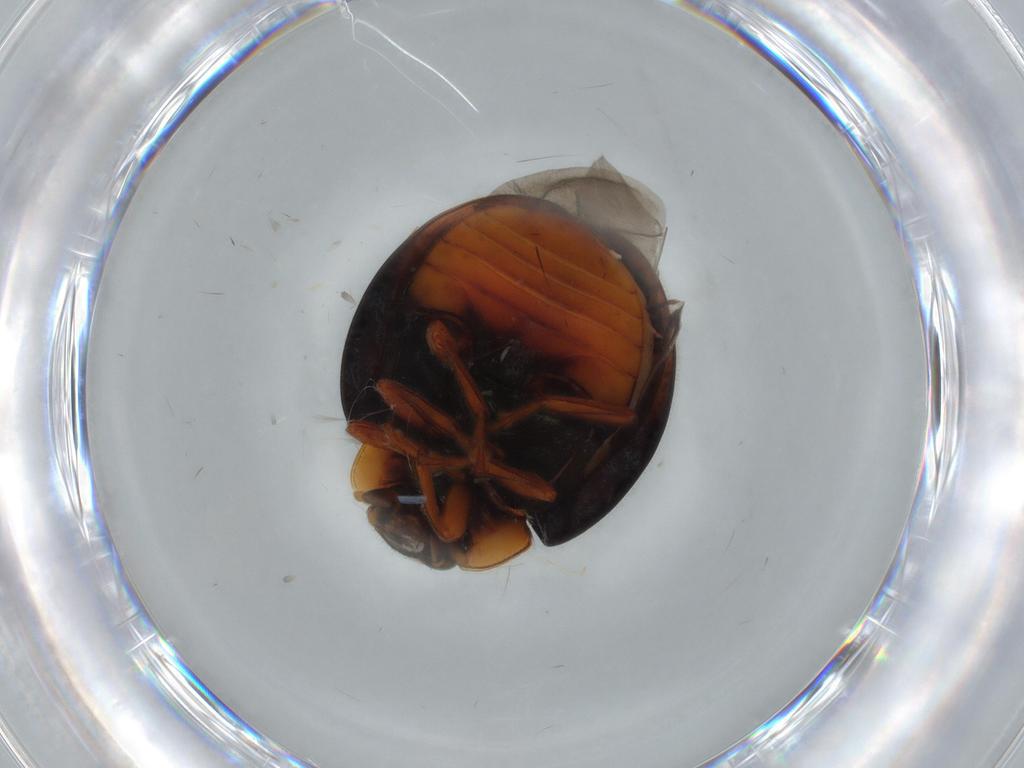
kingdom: Animalia
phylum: Arthropoda
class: Insecta
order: Coleoptera
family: Coccinellidae
